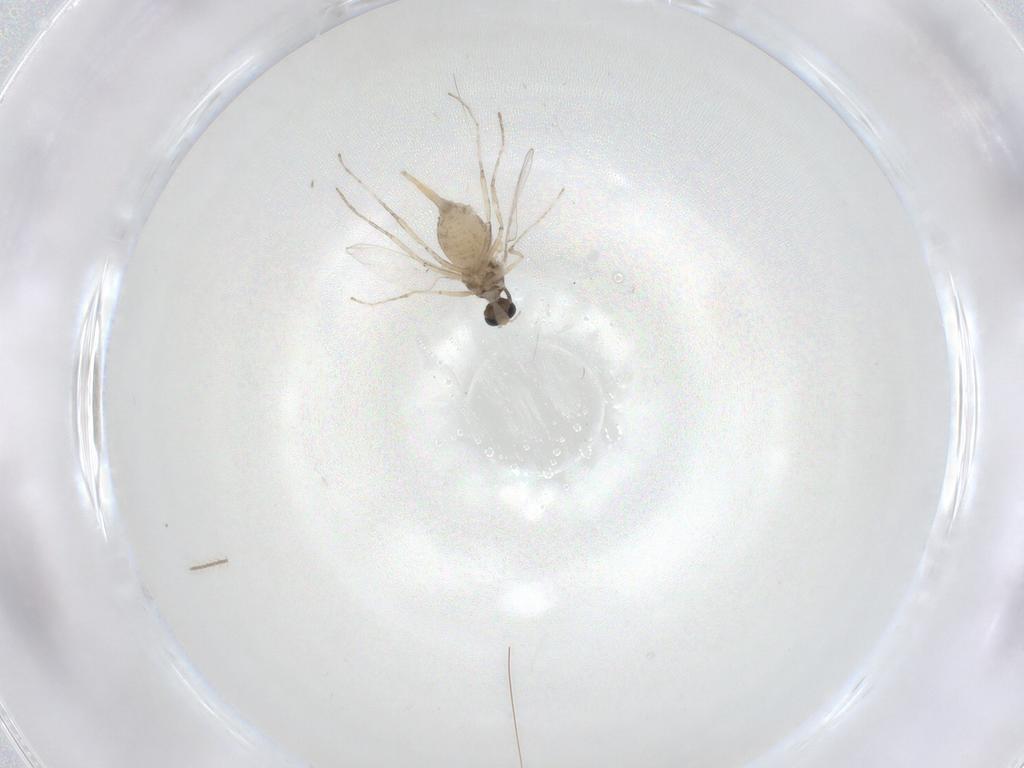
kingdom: Animalia
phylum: Arthropoda
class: Insecta
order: Diptera
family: Cecidomyiidae
